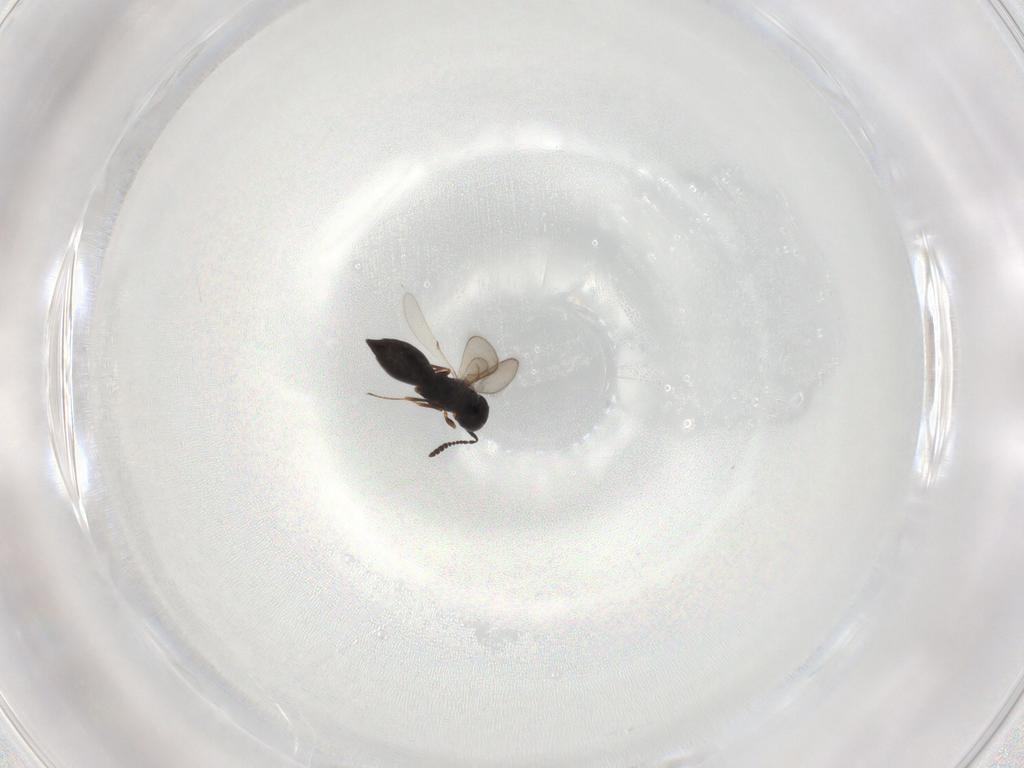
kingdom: Animalia
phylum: Arthropoda
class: Insecta
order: Hymenoptera
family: Scelionidae
